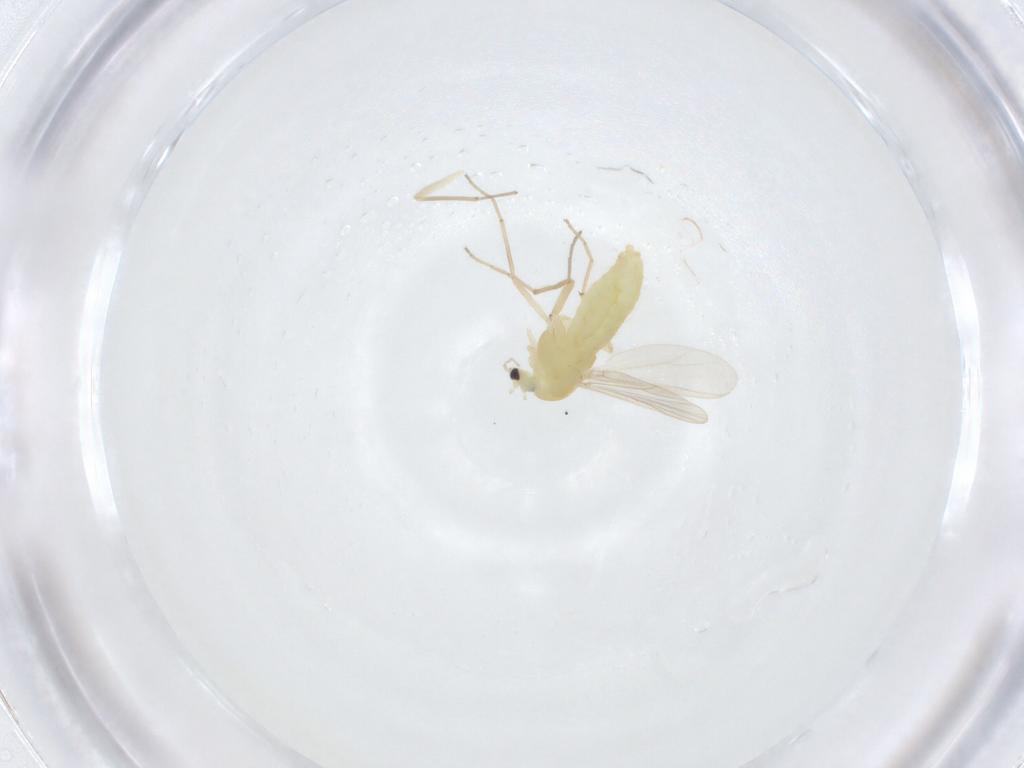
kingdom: Animalia
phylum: Arthropoda
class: Insecta
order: Diptera
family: Chironomidae
